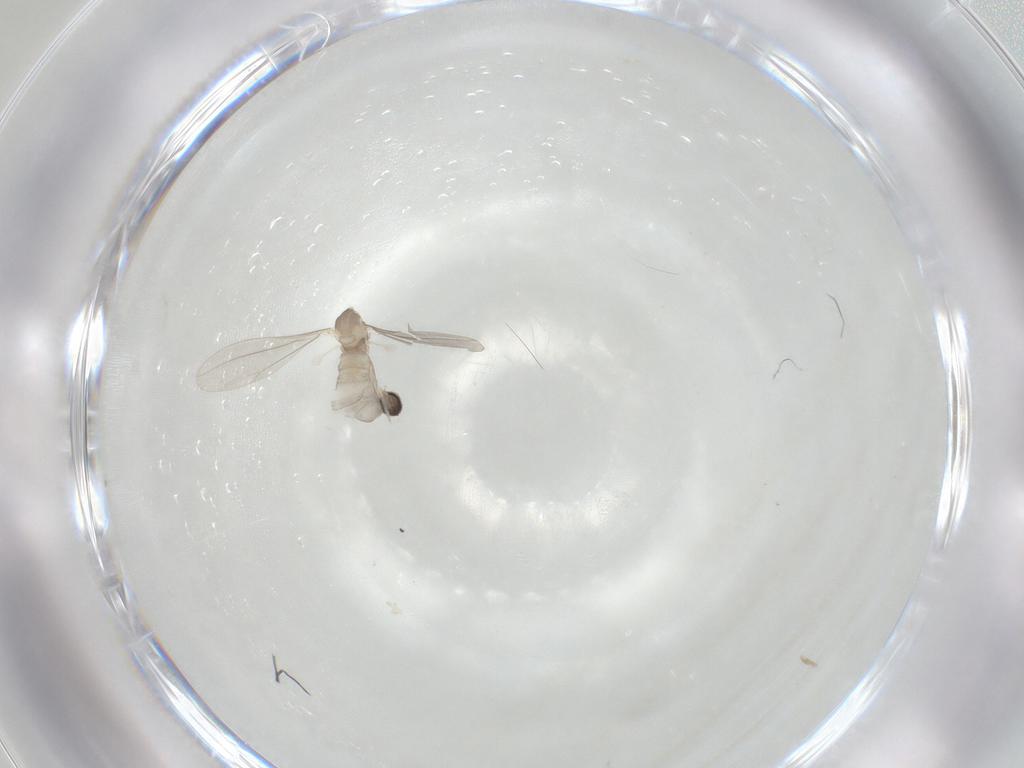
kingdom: Animalia
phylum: Arthropoda
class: Insecta
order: Diptera
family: Cecidomyiidae
